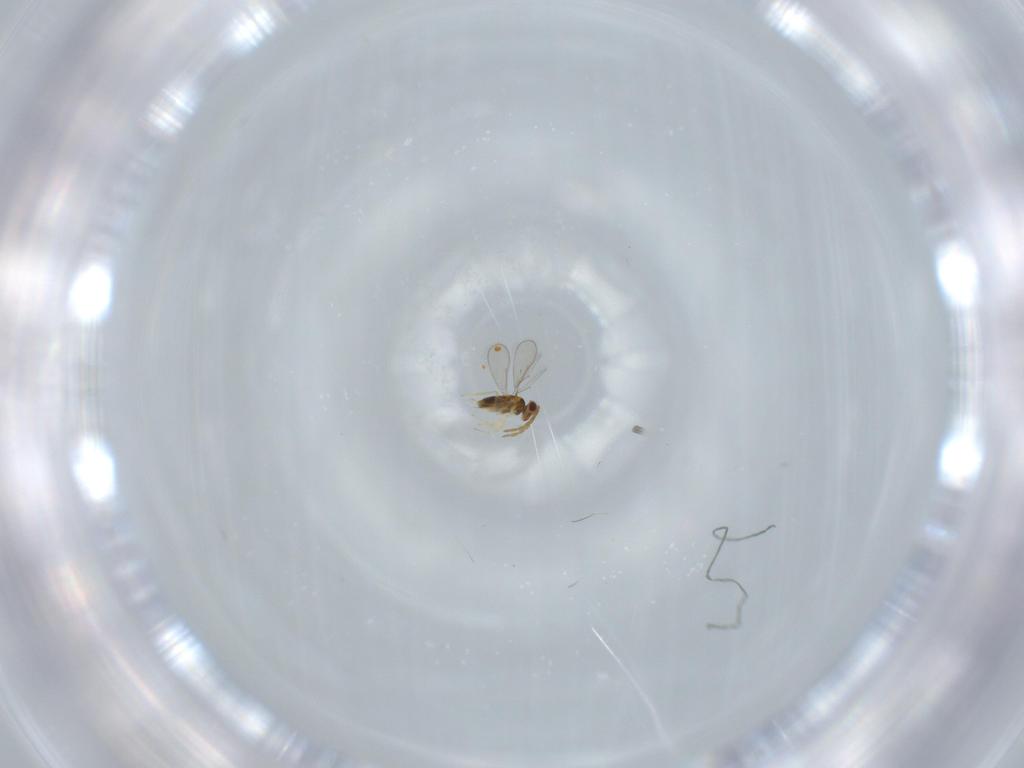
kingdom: Animalia
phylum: Arthropoda
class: Insecta
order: Hymenoptera
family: Aphelinidae
